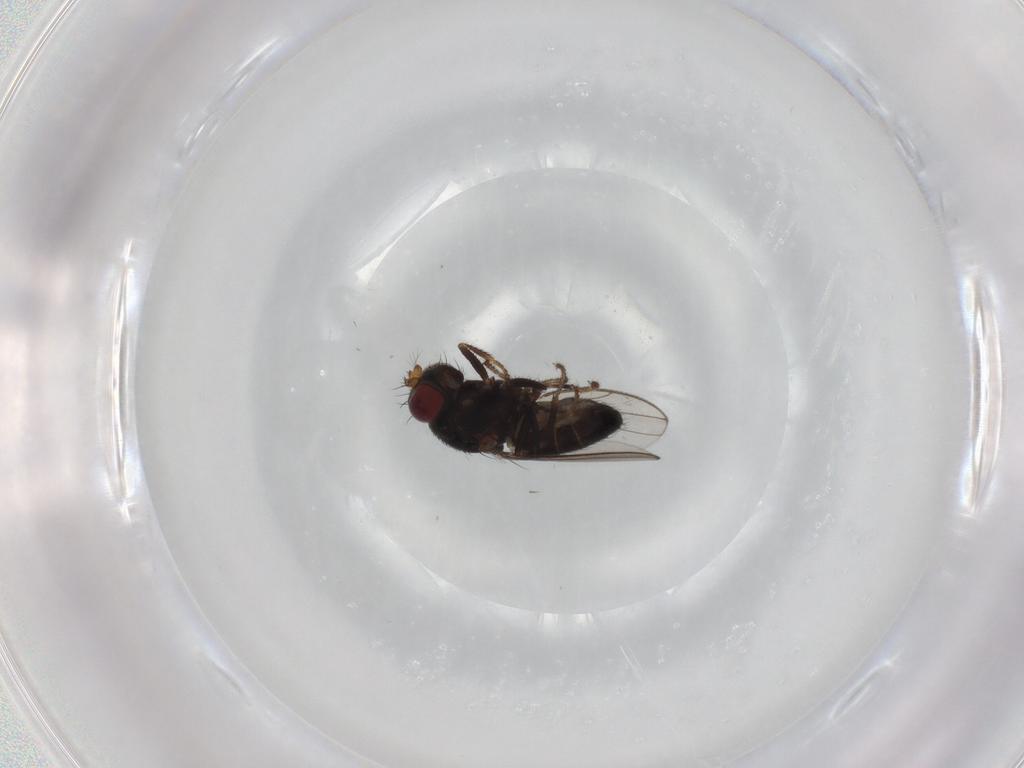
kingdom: Animalia
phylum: Arthropoda
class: Insecta
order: Diptera
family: Ephydridae
